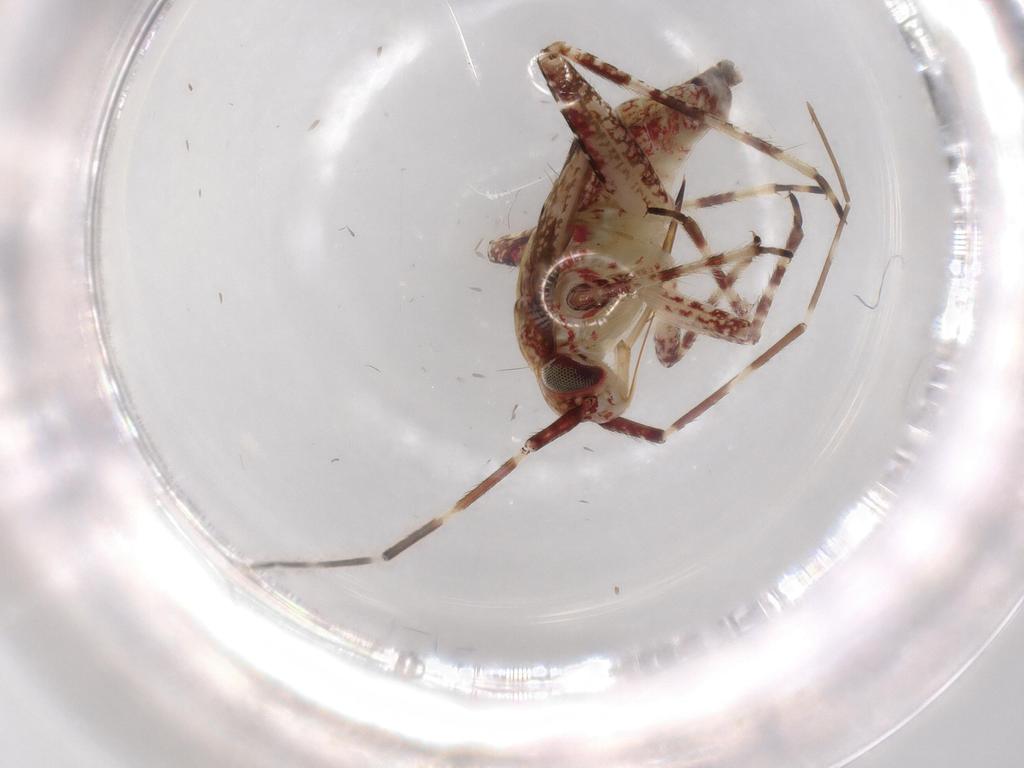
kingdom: Animalia
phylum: Arthropoda
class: Insecta
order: Hemiptera
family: Miridae
